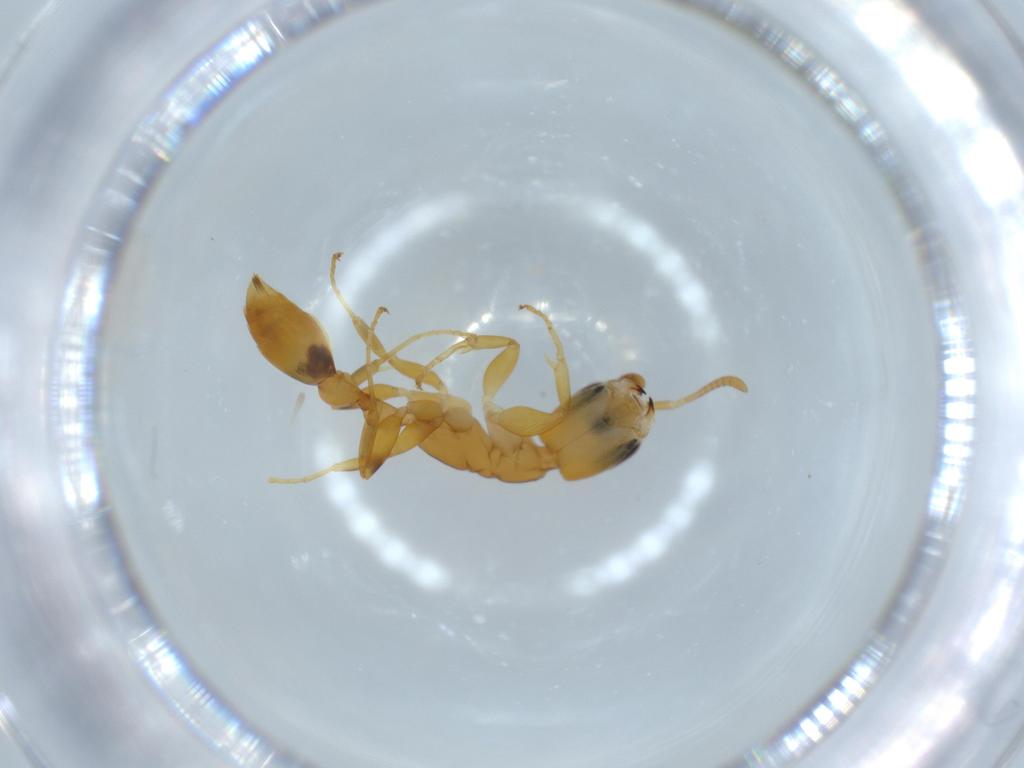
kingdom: Animalia
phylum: Arthropoda
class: Insecta
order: Hymenoptera
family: Formicidae
